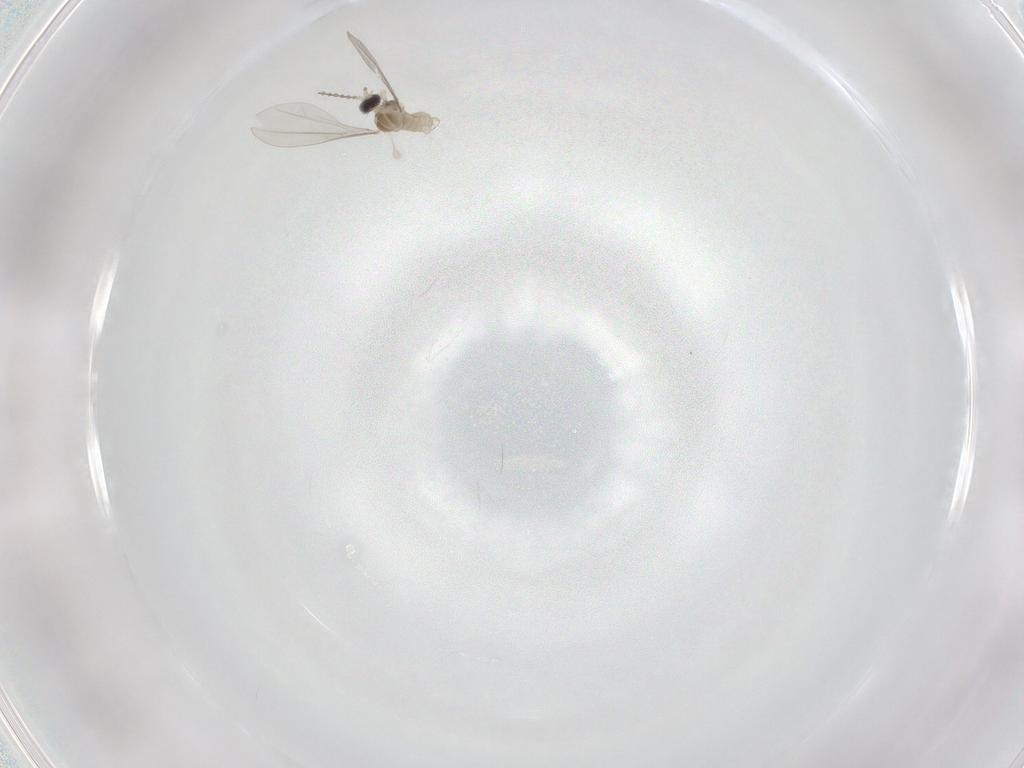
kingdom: Animalia
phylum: Arthropoda
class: Insecta
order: Diptera
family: Cecidomyiidae
